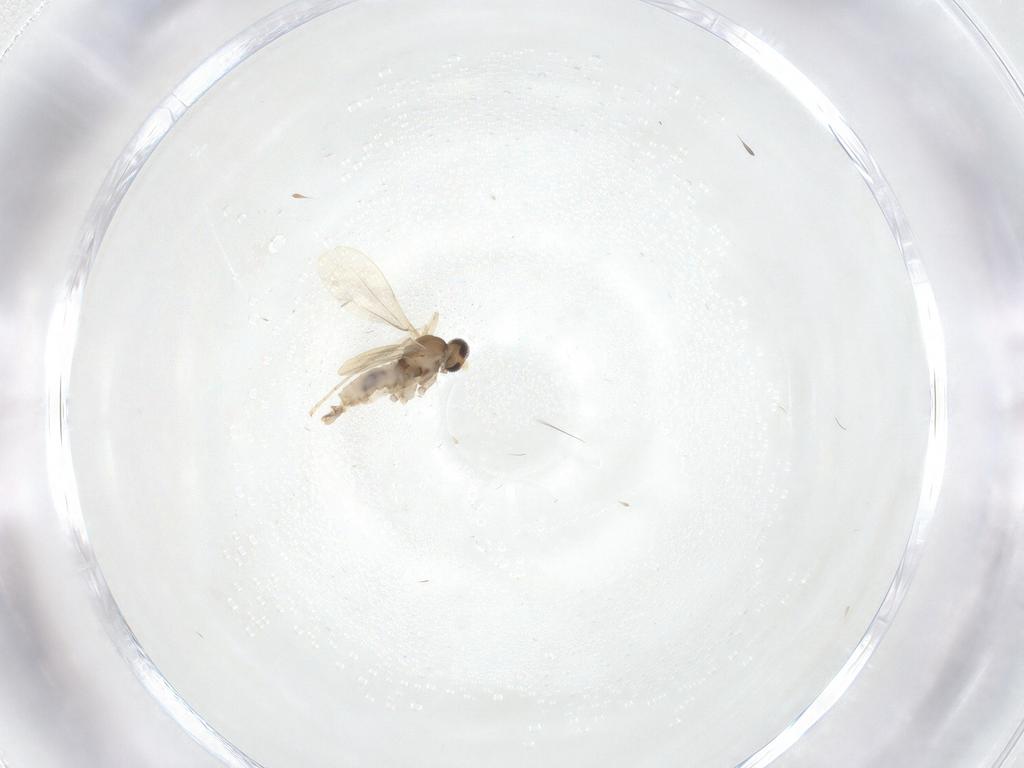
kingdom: Animalia
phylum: Arthropoda
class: Insecta
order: Diptera
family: Cecidomyiidae
